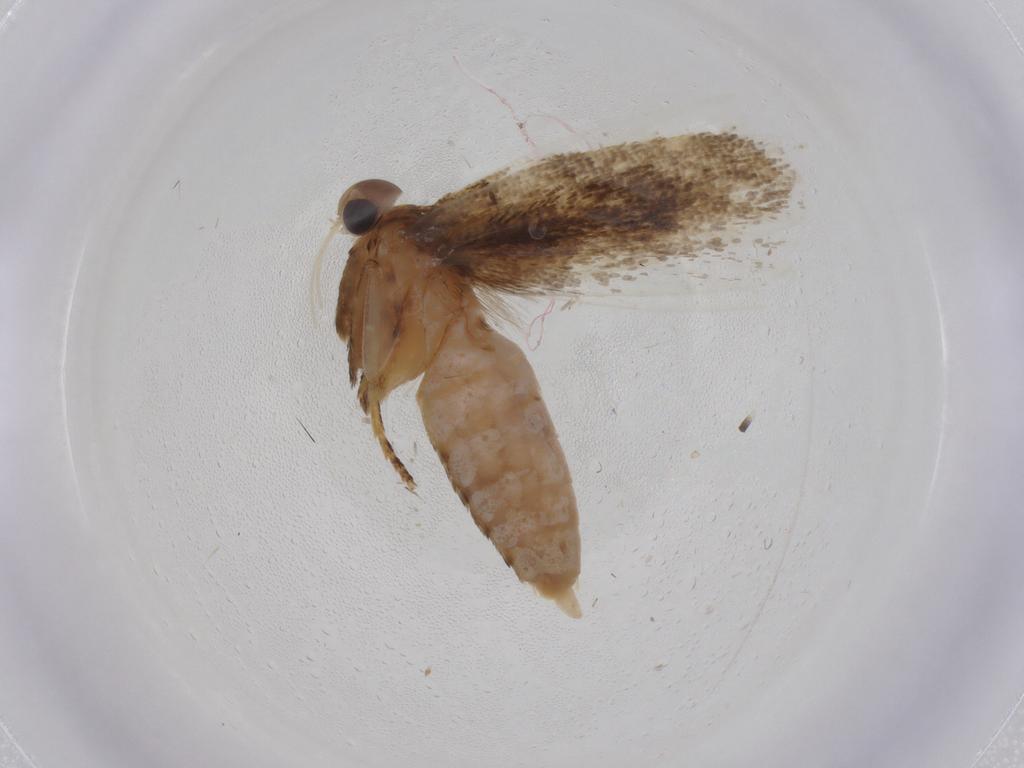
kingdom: Animalia
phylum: Arthropoda
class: Insecta
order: Lepidoptera
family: Gelechiidae
